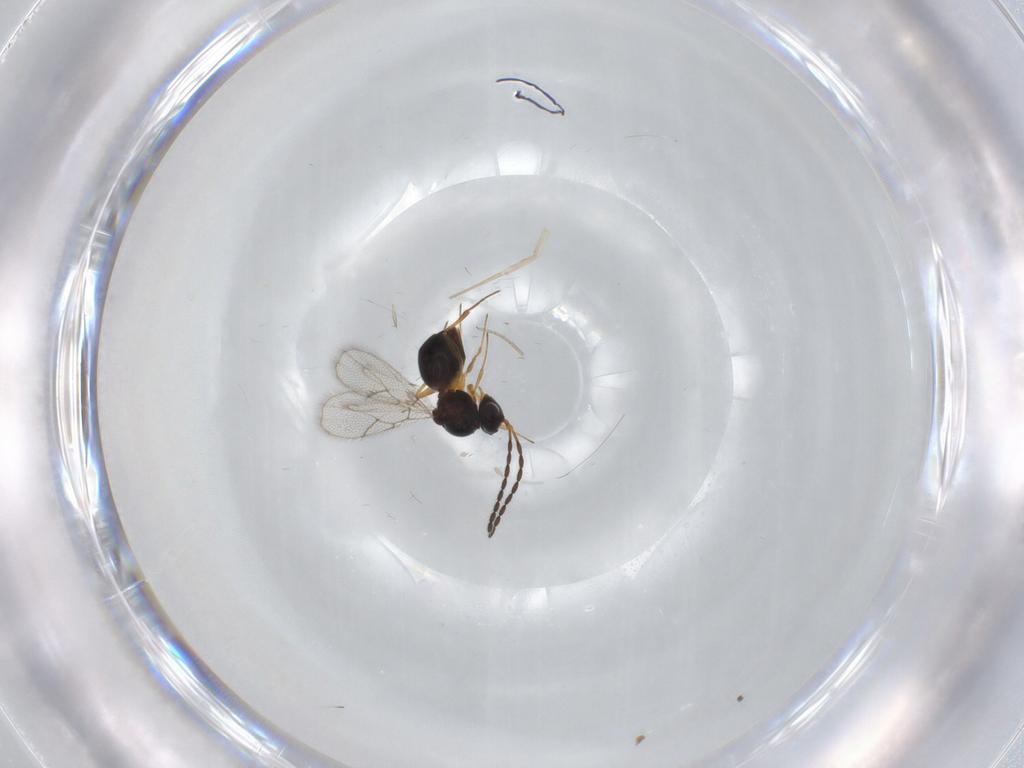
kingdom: Animalia
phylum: Arthropoda
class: Insecta
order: Hymenoptera
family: Figitidae
